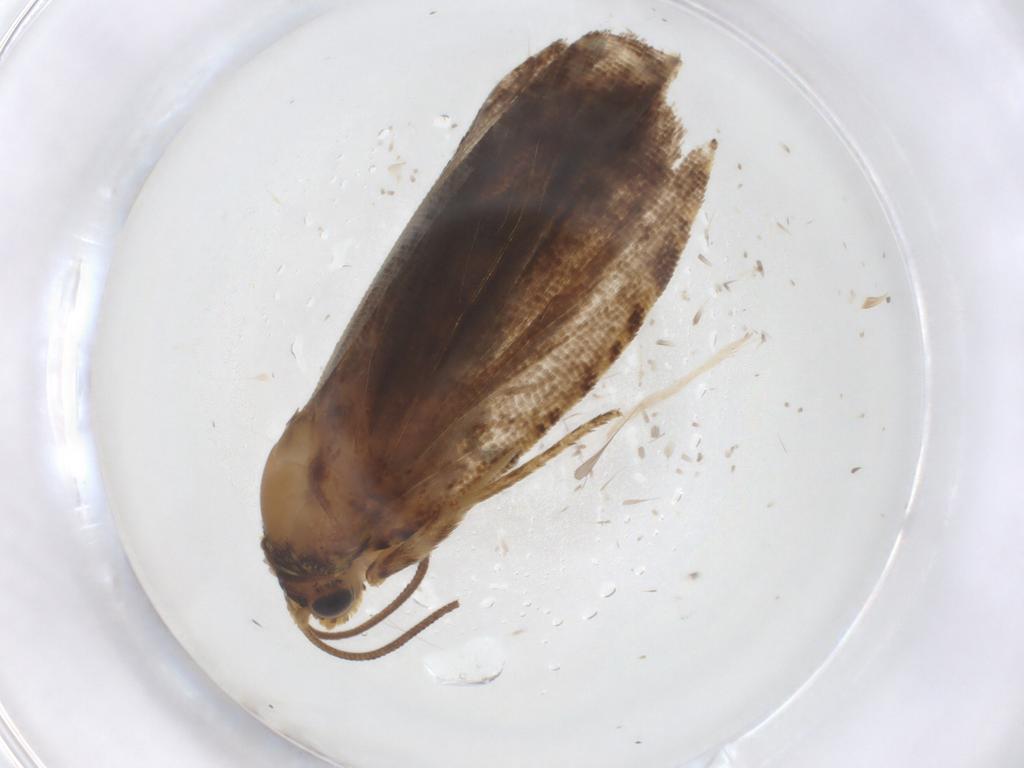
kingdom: Animalia
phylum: Arthropoda
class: Insecta
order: Lepidoptera
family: Tortricidae
